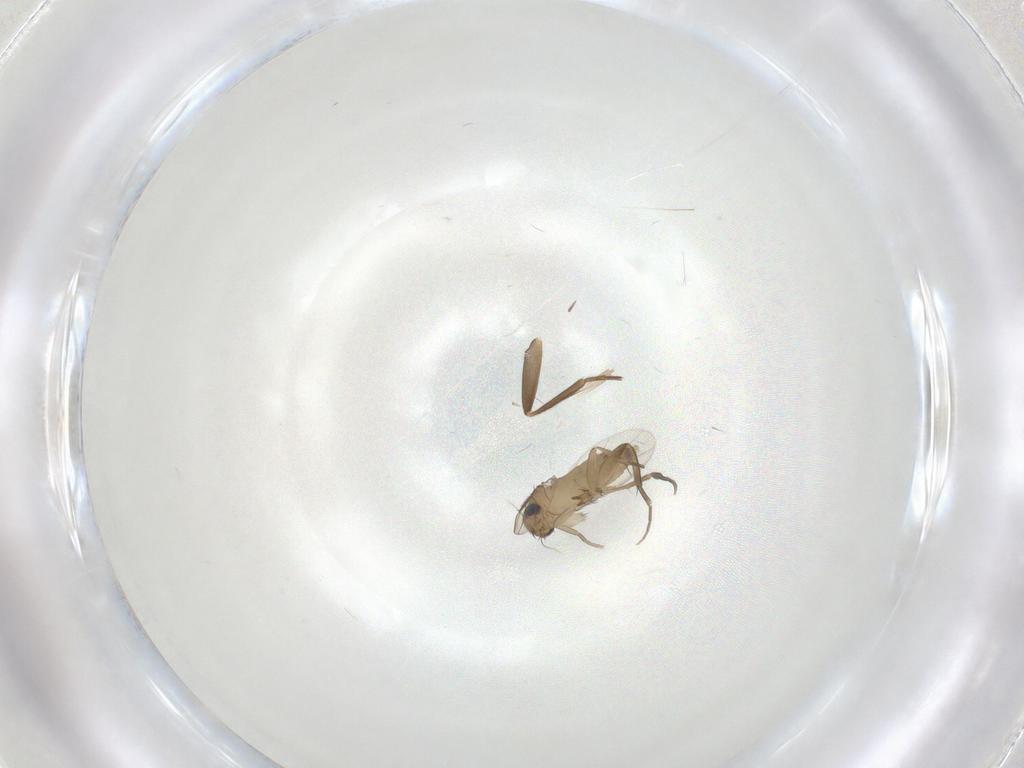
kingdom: Animalia
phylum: Arthropoda
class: Insecta
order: Diptera
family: Phoridae
